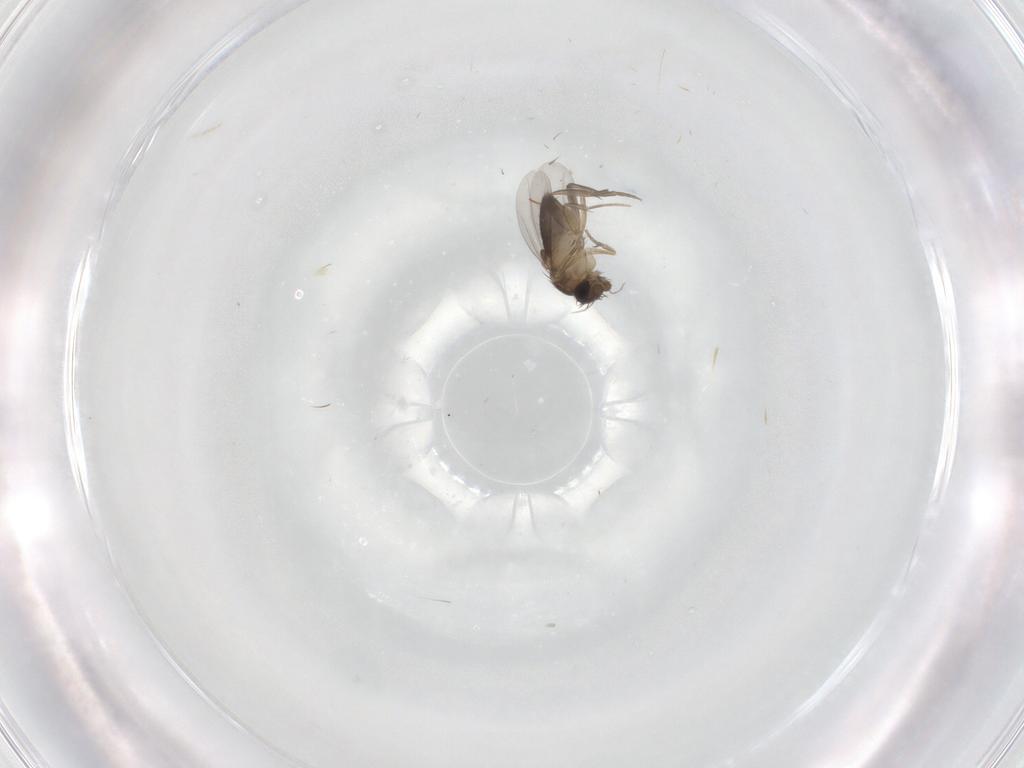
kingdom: Animalia
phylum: Arthropoda
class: Insecta
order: Diptera
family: Phoridae
